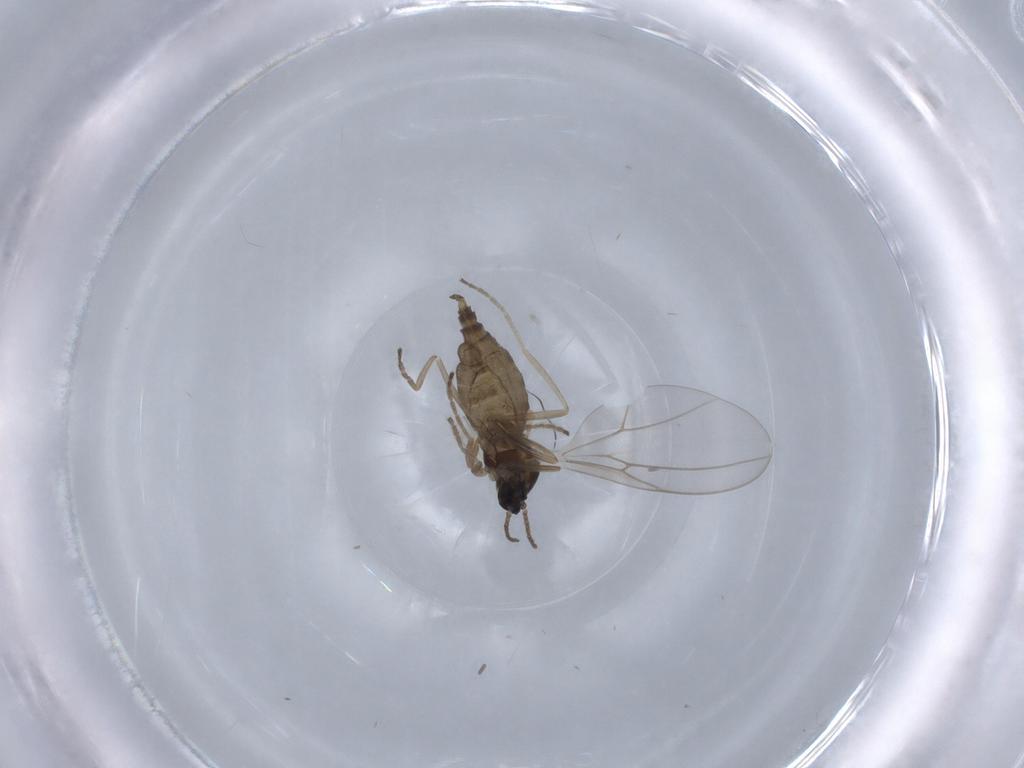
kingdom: Animalia
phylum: Arthropoda
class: Insecta
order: Diptera
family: Cecidomyiidae
